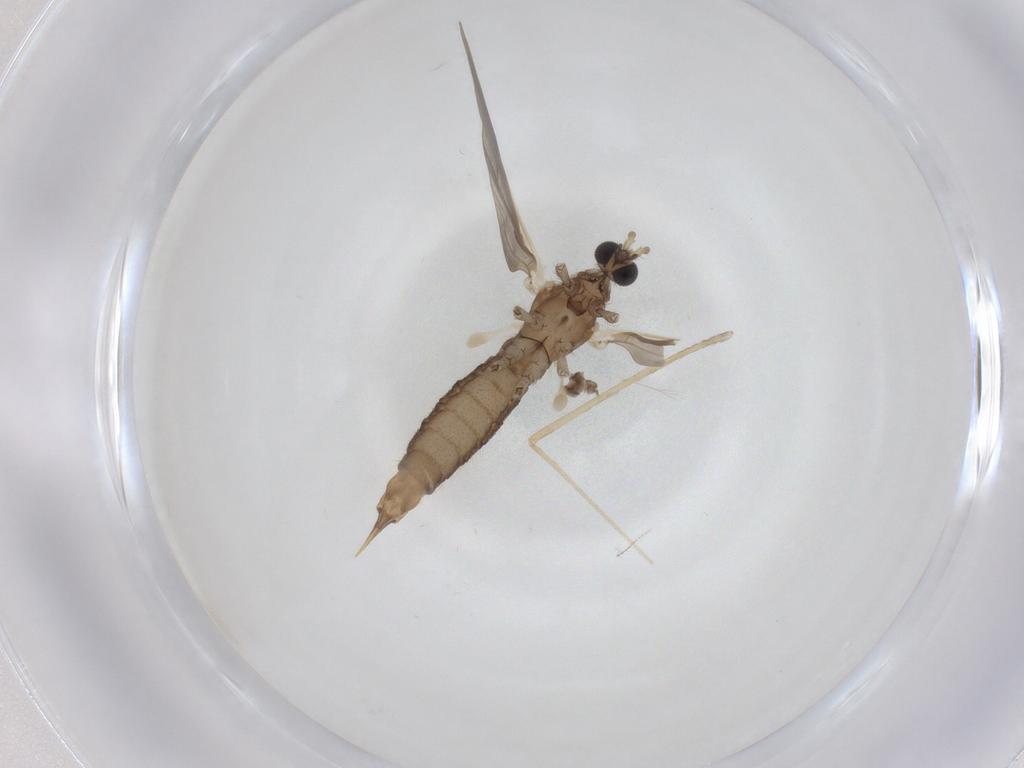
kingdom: Animalia
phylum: Arthropoda
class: Insecta
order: Diptera
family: Limoniidae
